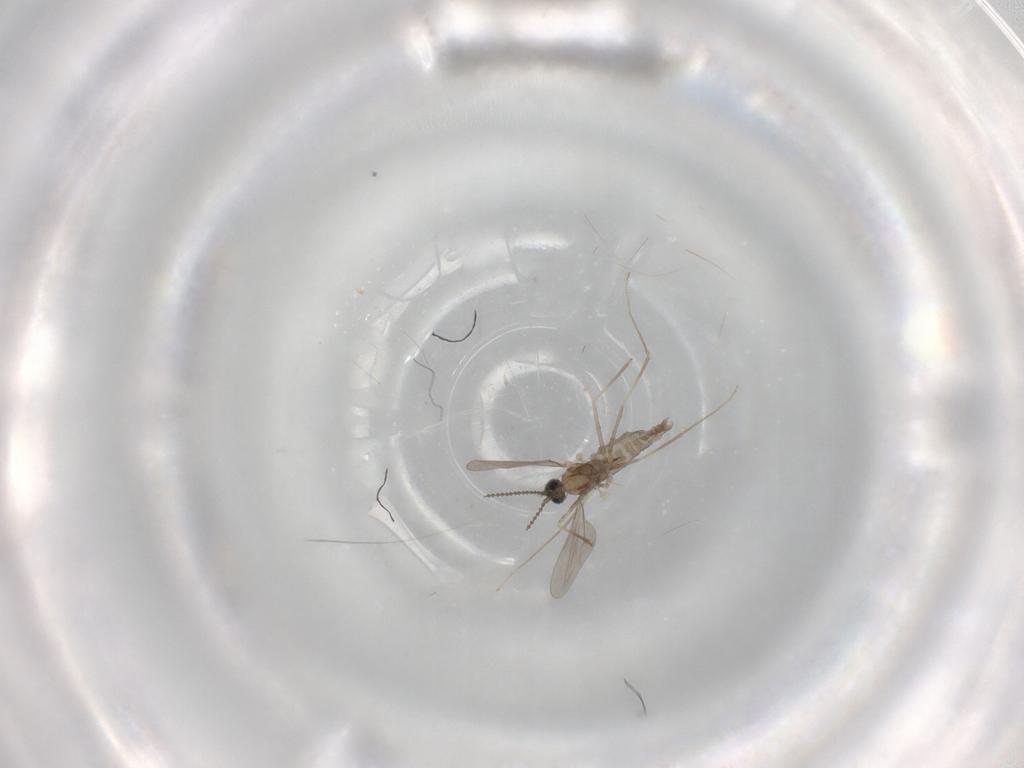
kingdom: Animalia
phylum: Arthropoda
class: Insecta
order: Diptera
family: Cecidomyiidae
